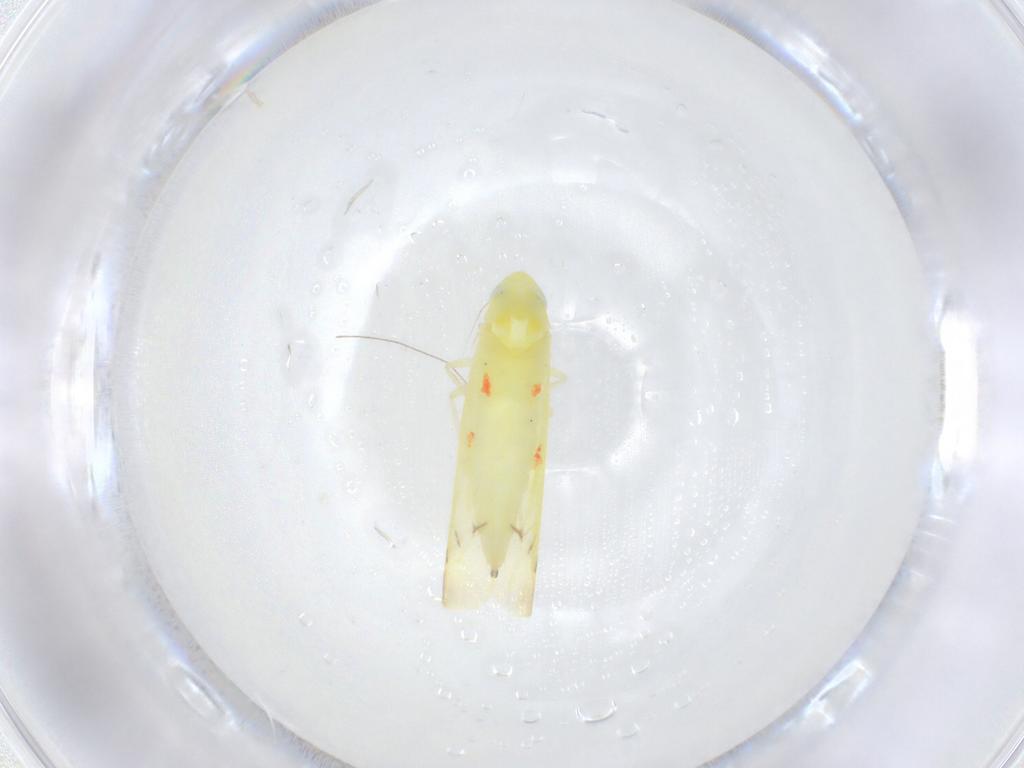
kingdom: Animalia
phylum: Arthropoda
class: Insecta
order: Hemiptera
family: Cicadellidae
